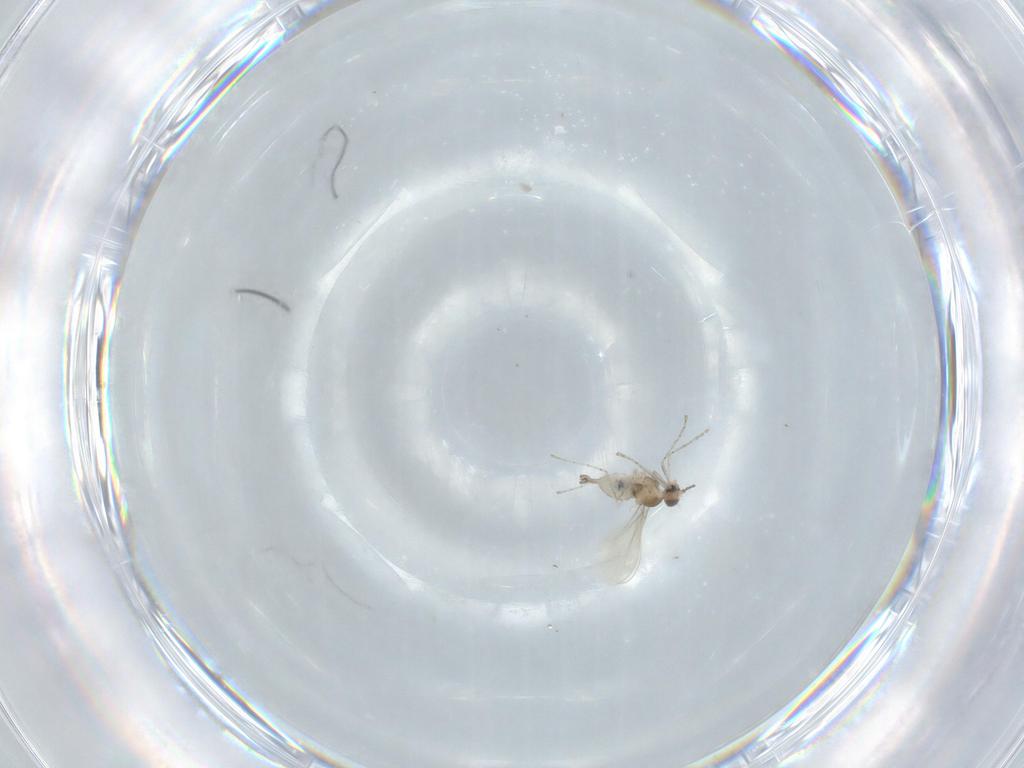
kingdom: Animalia
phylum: Arthropoda
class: Insecta
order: Diptera
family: Cecidomyiidae
